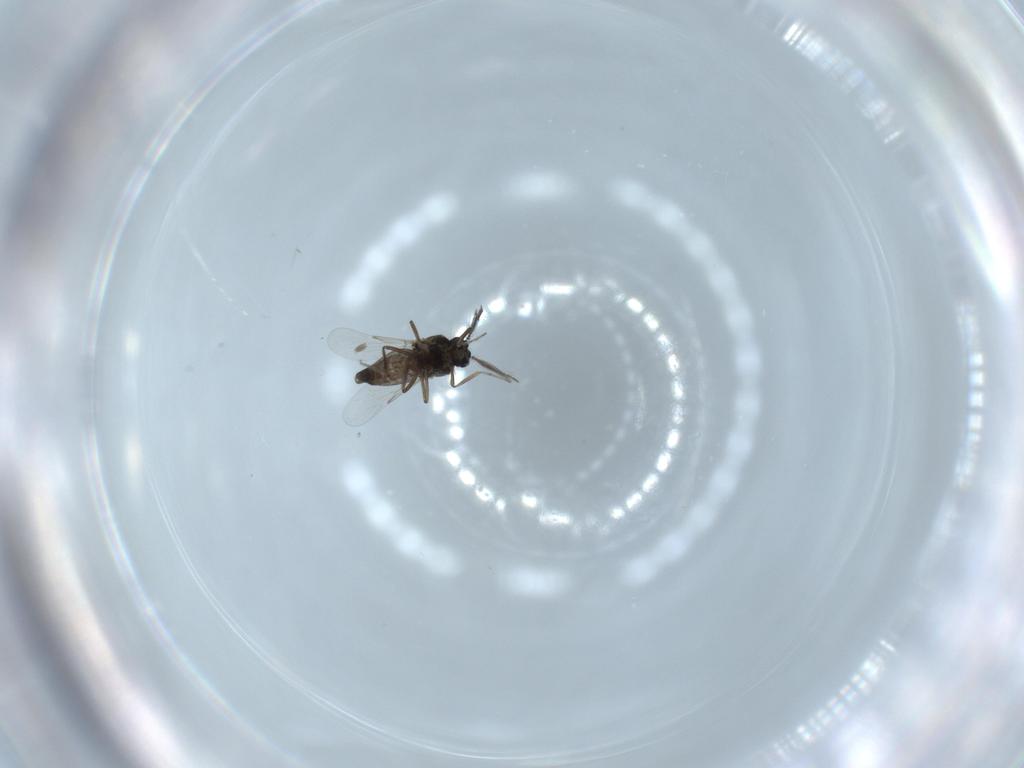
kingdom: Animalia
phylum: Arthropoda
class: Insecta
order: Diptera
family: Ceratopogonidae
